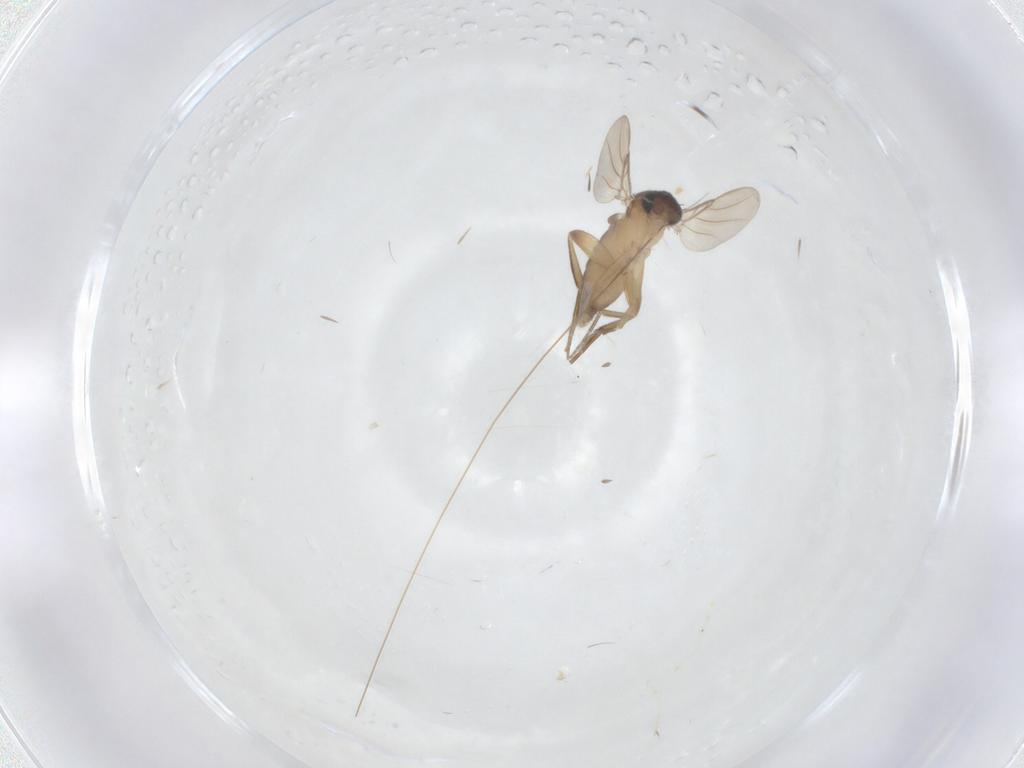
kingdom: Animalia
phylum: Arthropoda
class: Insecta
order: Diptera
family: Phoridae
